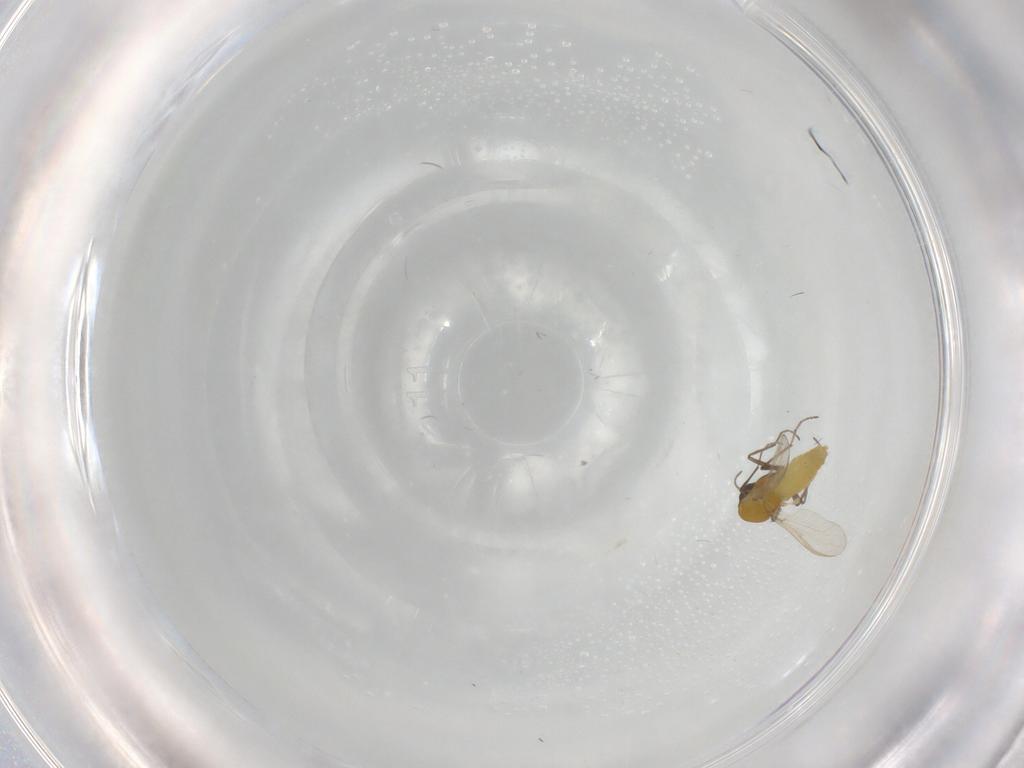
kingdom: Animalia
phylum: Arthropoda
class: Insecta
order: Diptera
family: Chironomidae
